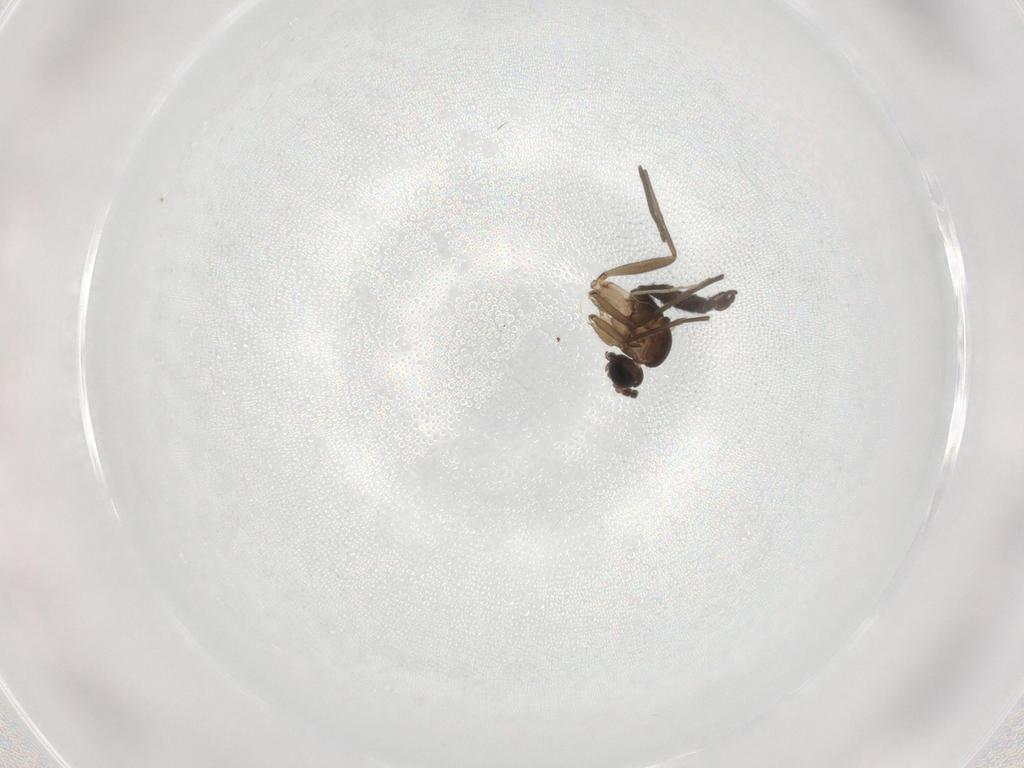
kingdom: Animalia
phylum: Arthropoda
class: Insecta
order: Diptera
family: Sciaridae
